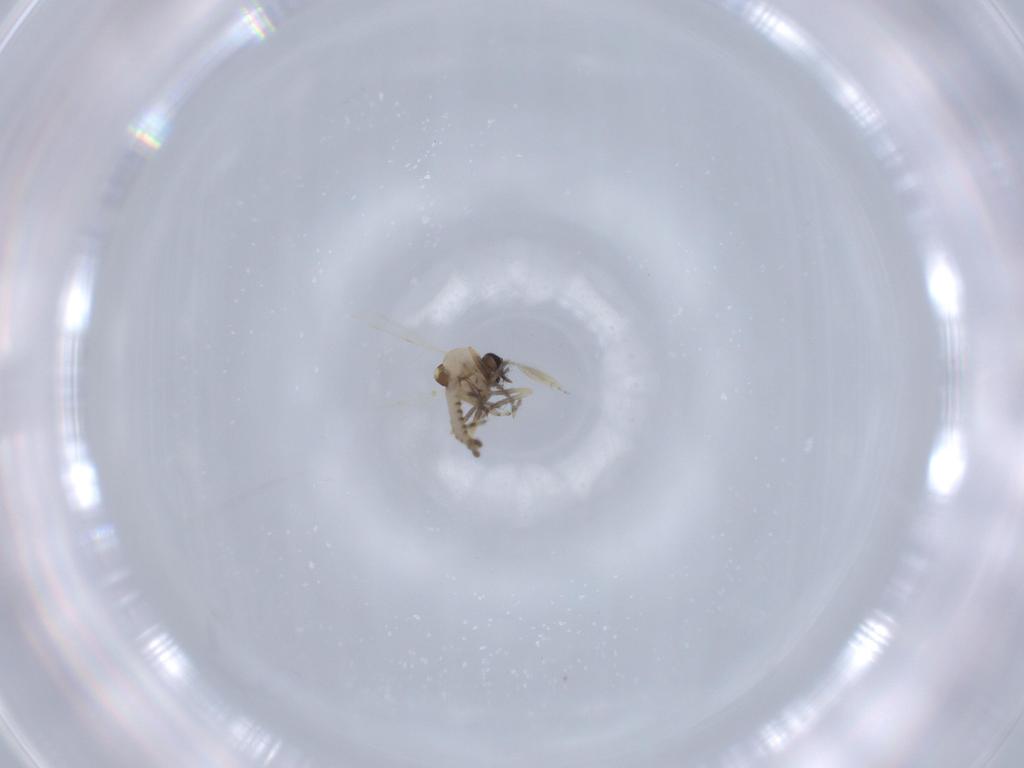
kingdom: Animalia
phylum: Arthropoda
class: Insecta
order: Diptera
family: Ceratopogonidae
